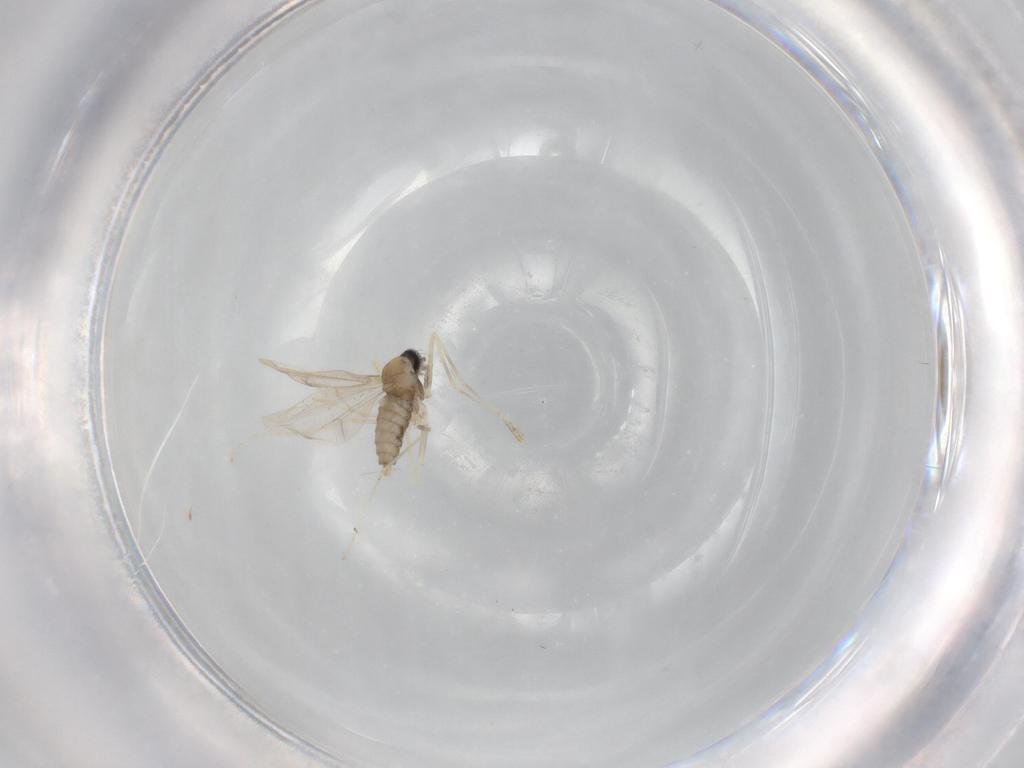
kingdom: Animalia
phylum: Arthropoda
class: Insecta
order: Diptera
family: Cecidomyiidae
